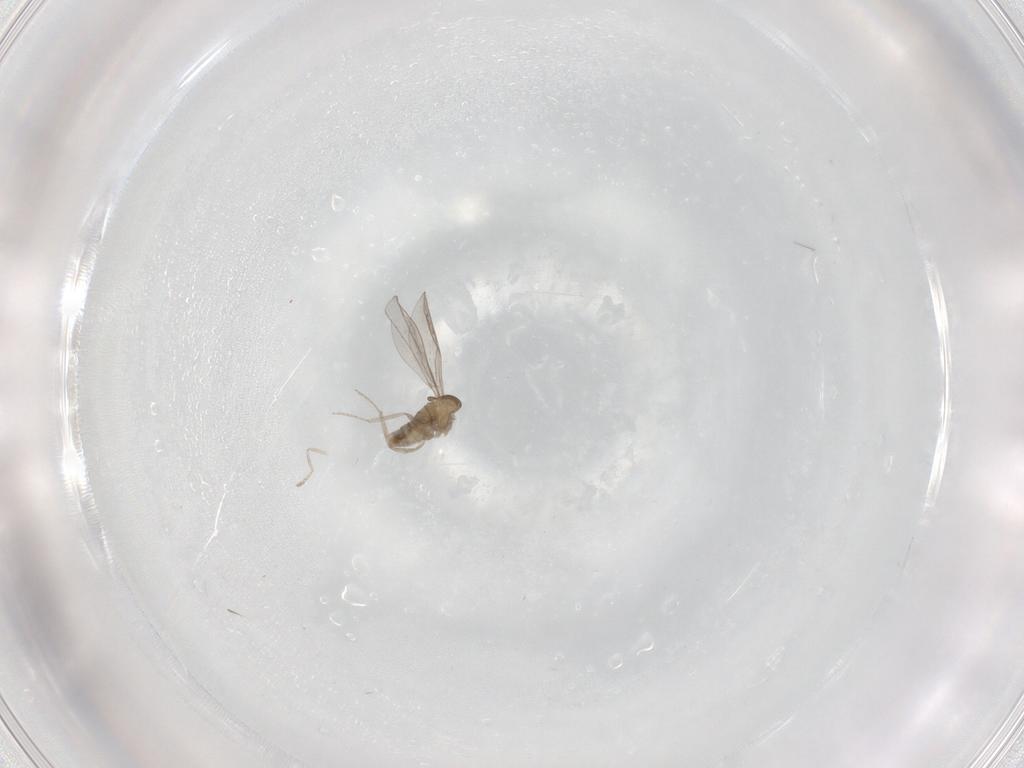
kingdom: Animalia
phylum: Arthropoda
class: Insecta
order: Diptera
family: Cecidomyiidae
